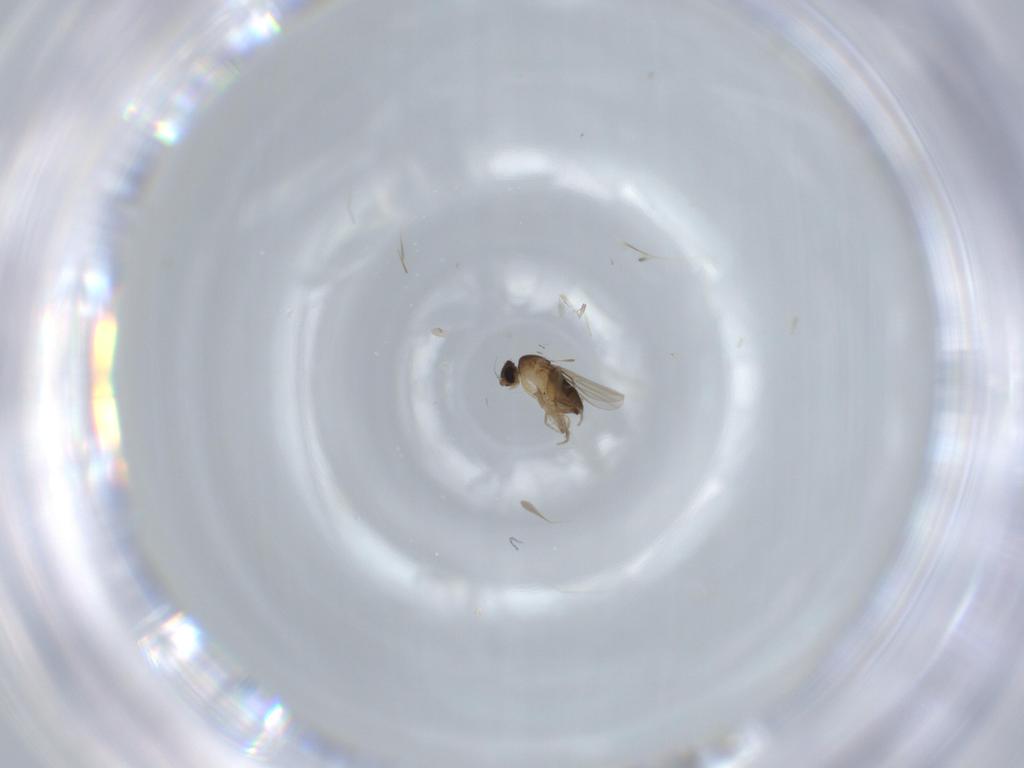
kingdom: Animalia
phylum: Arthropoda
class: Insecta
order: Diptera
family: Phoridae
